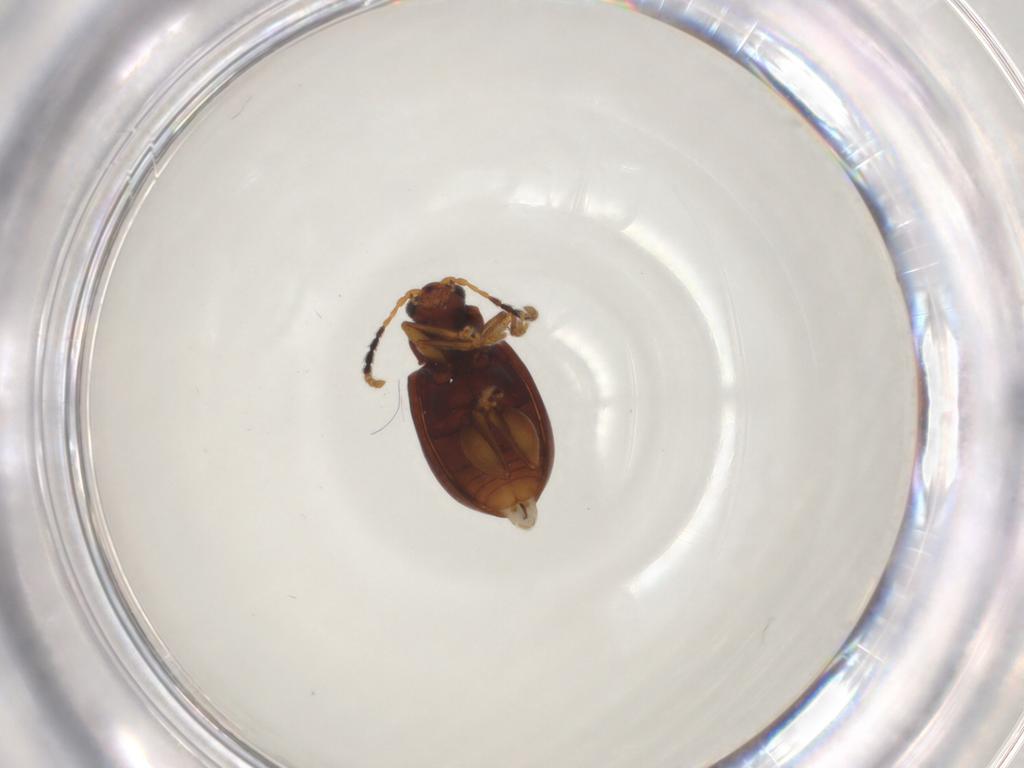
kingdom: Animalia
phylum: Arthropoda
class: Insecta
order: Coleoptera
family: Chrysomelidae
